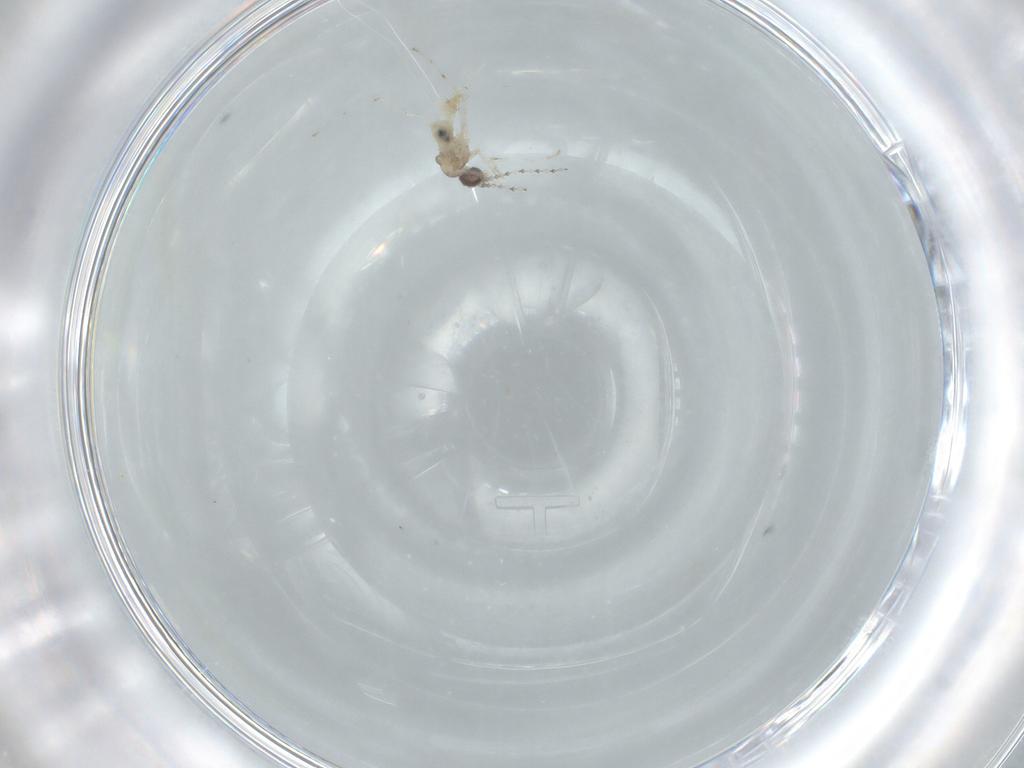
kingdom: Animalia
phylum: Arthropoda
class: Insecta
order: Diptera
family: Cecidomyiidae
